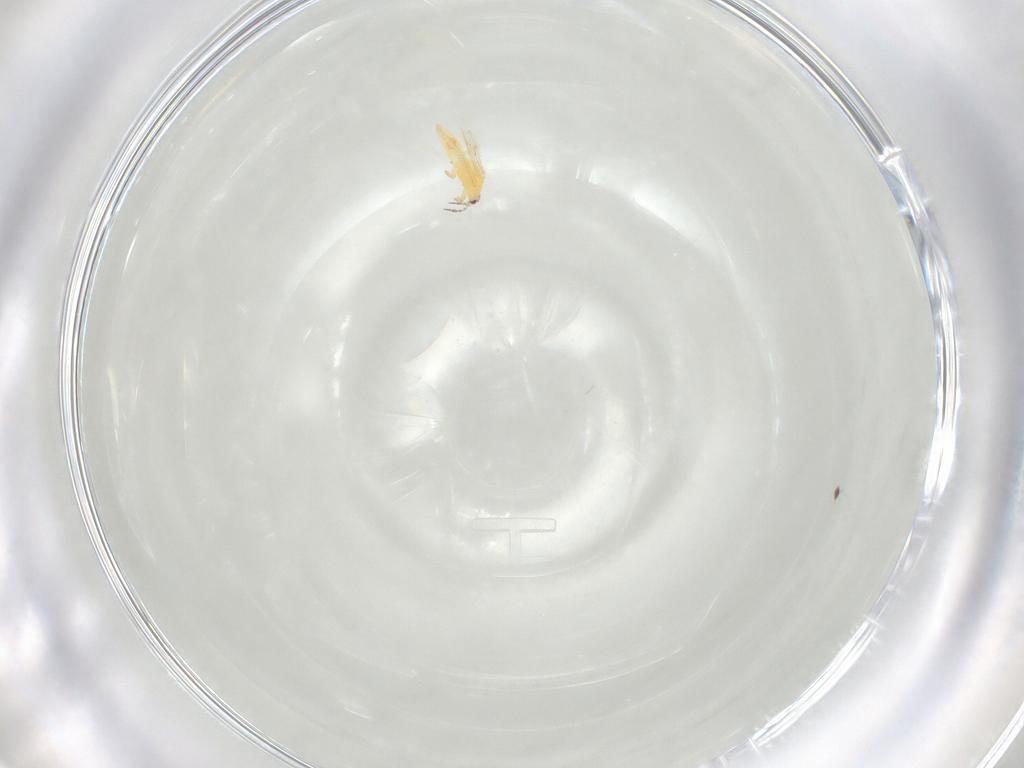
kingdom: Animalia
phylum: Arthropoda
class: Insecta
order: Thysanoptera
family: Melanthripidae
